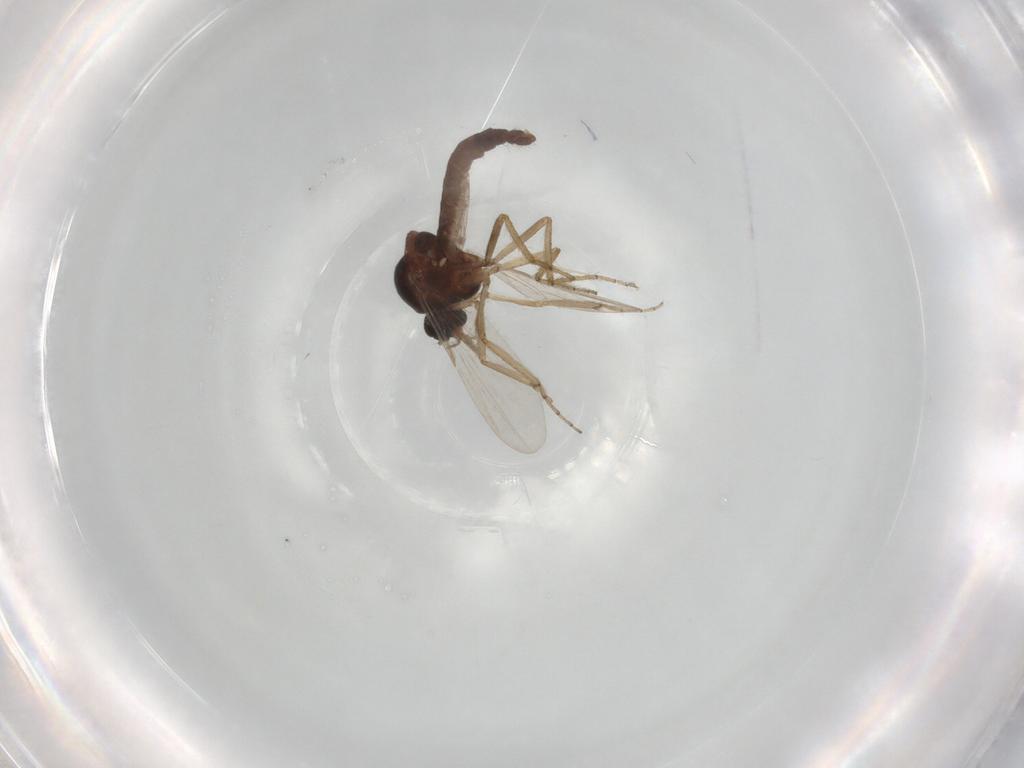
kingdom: Animalia
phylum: Arthropoda
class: Insecta
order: Diptera
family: Cecidomyiidae
